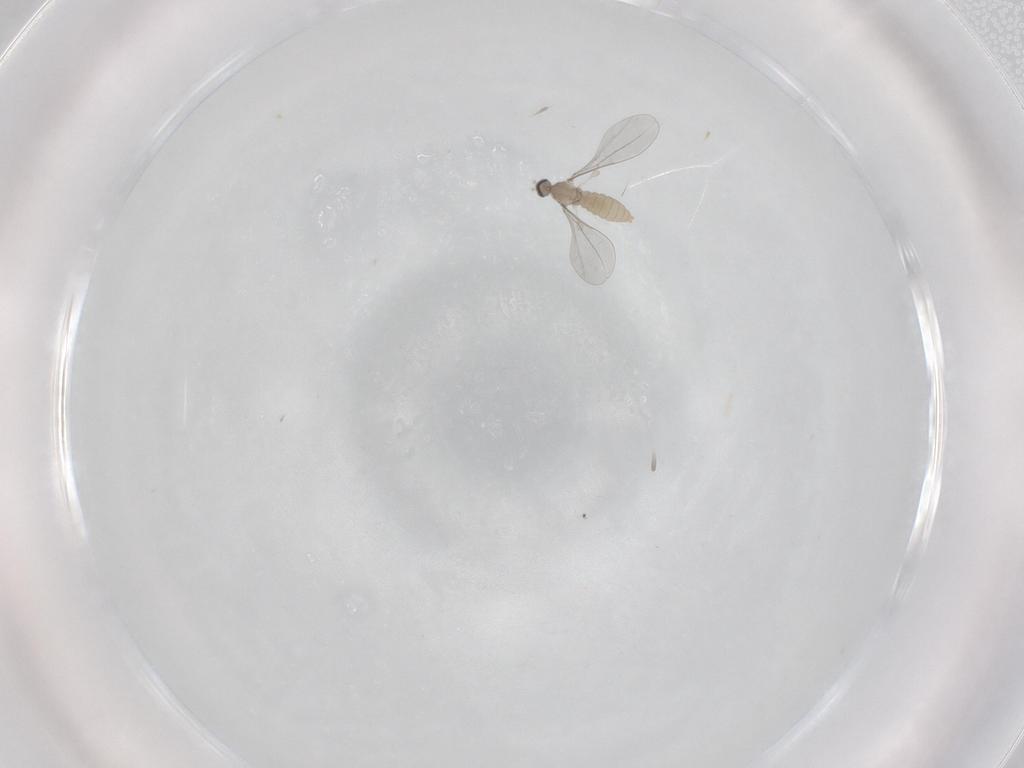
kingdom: Animalia
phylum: Arthropoda
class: Insecta
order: Diptera
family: Cecidomyiidae
